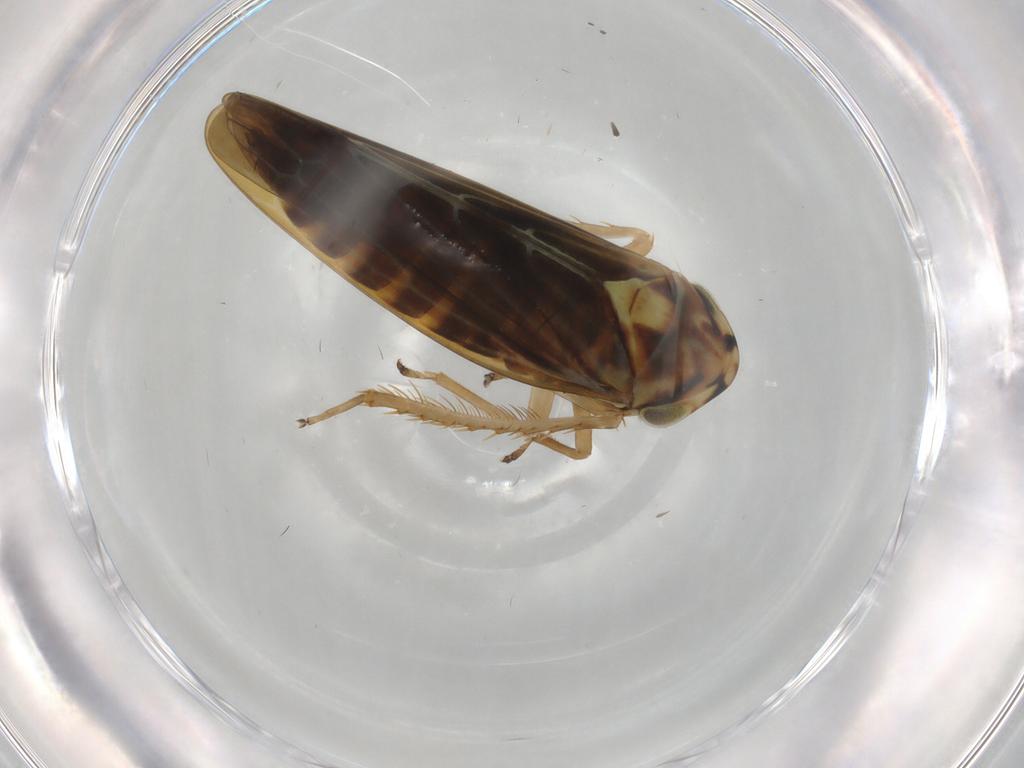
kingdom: Animalia
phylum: Arthropoda
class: Insecta
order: Hemiptera
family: Cicadellidae
